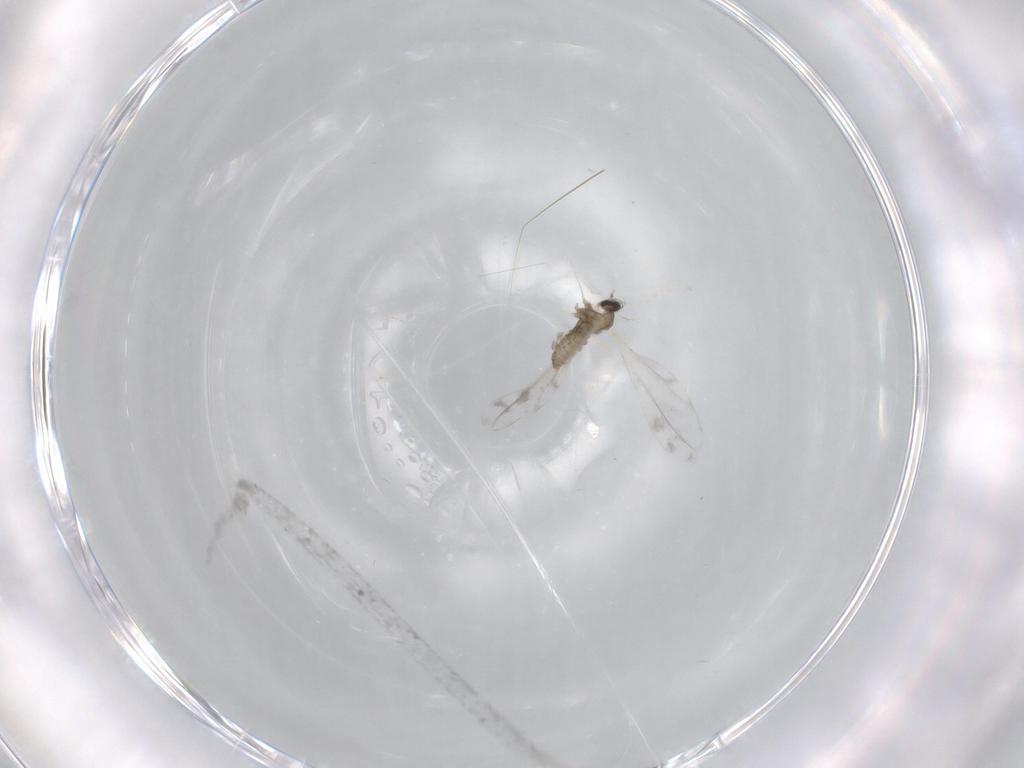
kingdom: Animalia
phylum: Arthropoda
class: Insecta
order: Diptera
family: Cecidomyiidae
